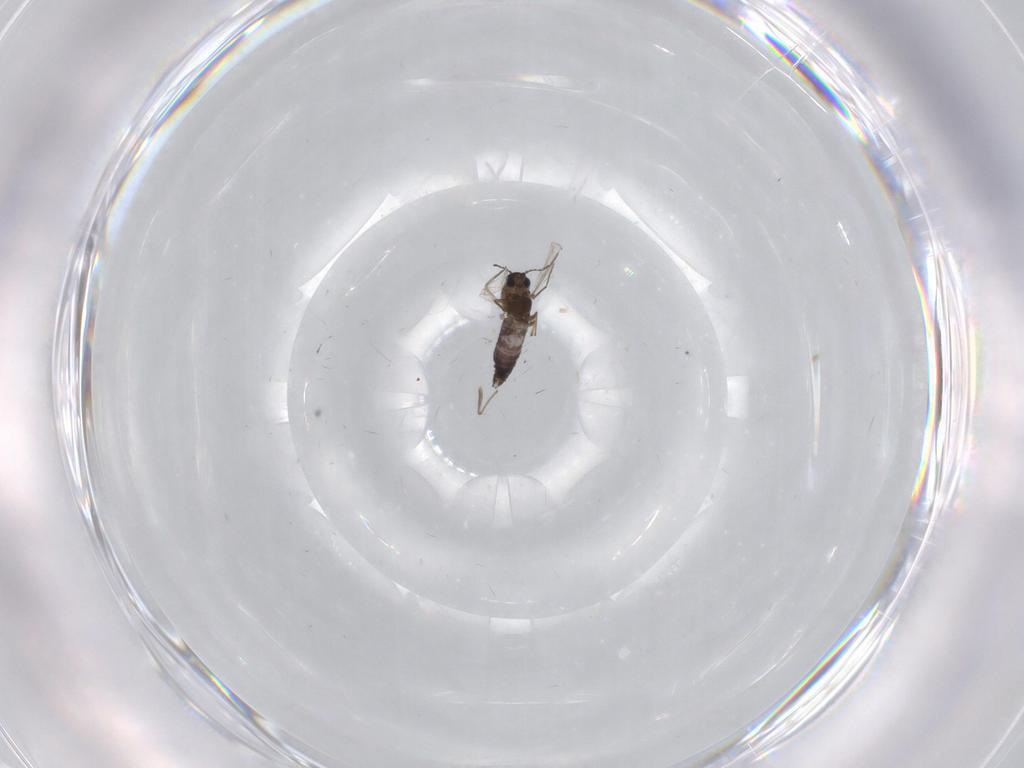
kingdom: Animalia
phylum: Arthropoda
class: Insecta
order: Diptera
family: Chironomidae
